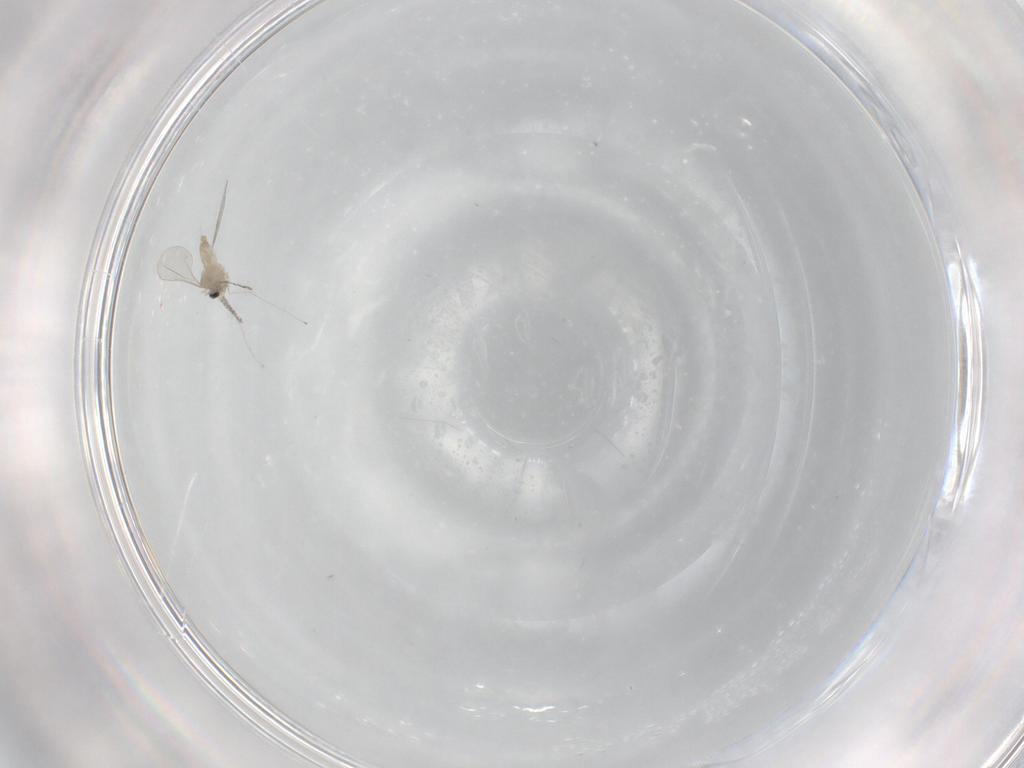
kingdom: Animalia
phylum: Arthropoda
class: Insecta
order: Diptera
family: Cecidomyiidae
